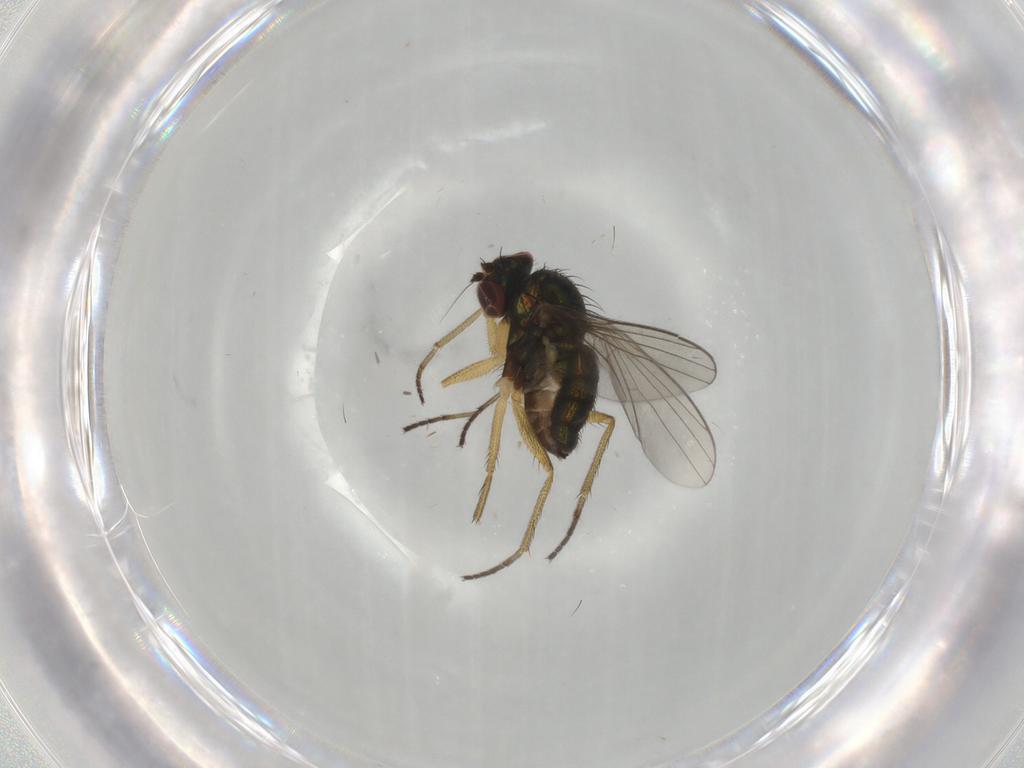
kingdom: Animalia
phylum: Arthropoda
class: Insecta
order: Diptera
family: Dolichopodidae
